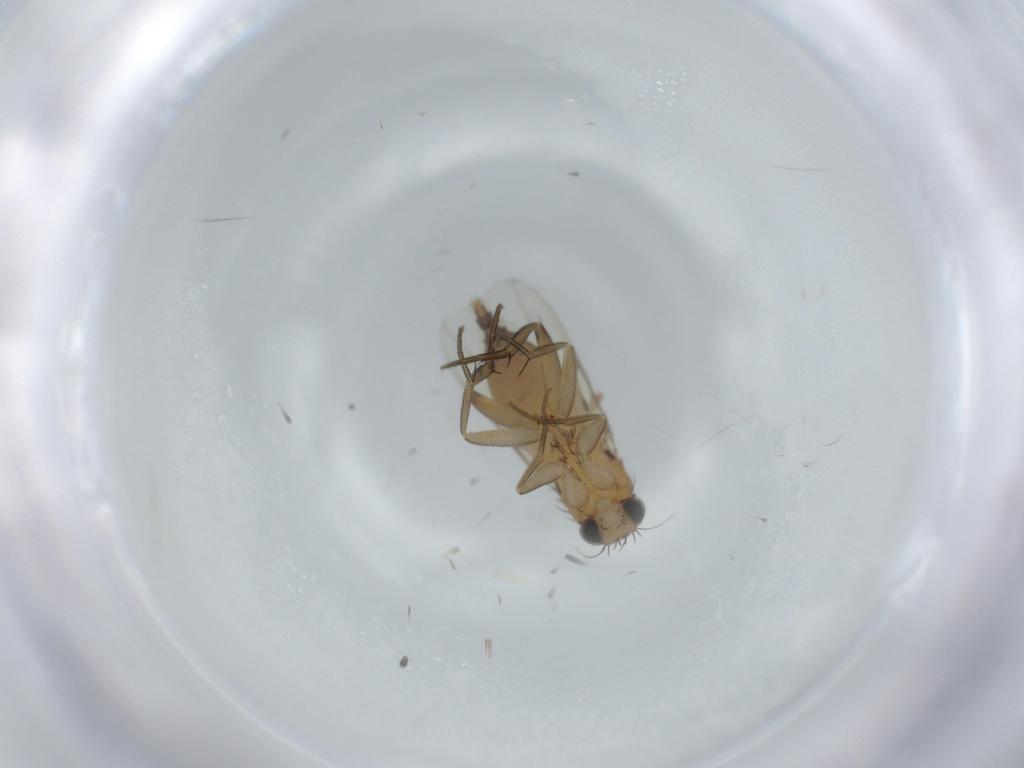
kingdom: Animalia
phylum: Arthropoda
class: Insecta
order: Diptera
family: Phoridae
